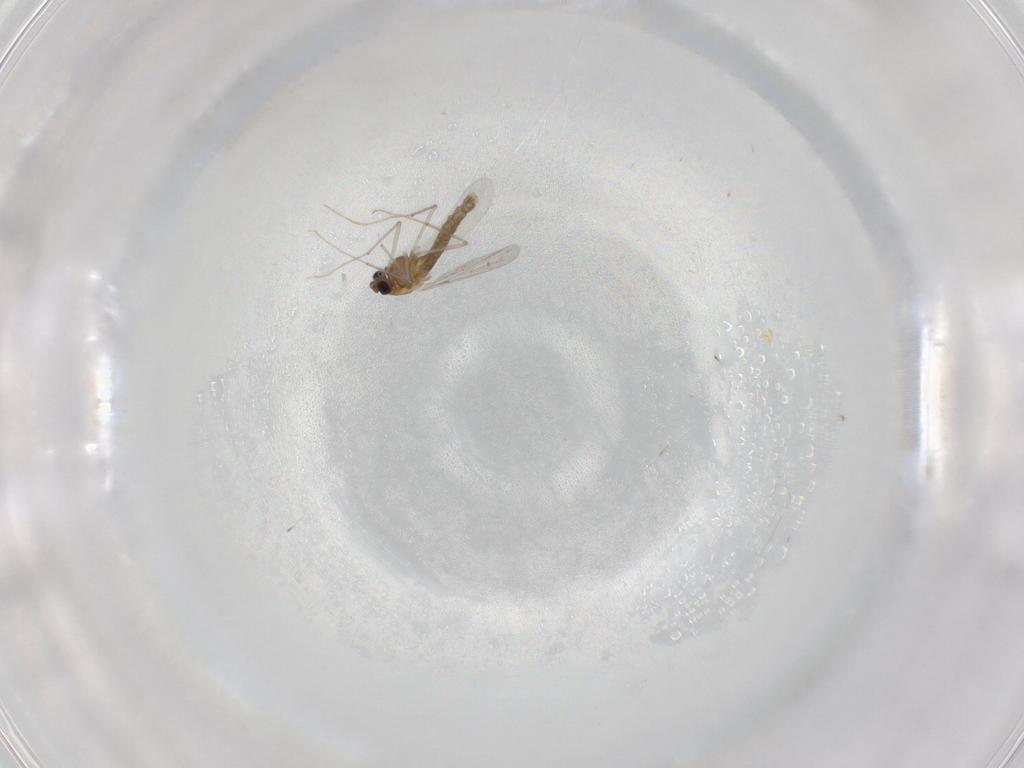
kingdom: Animalia
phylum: Arthropoda
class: Insecta
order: Diptera
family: Chironomidae
